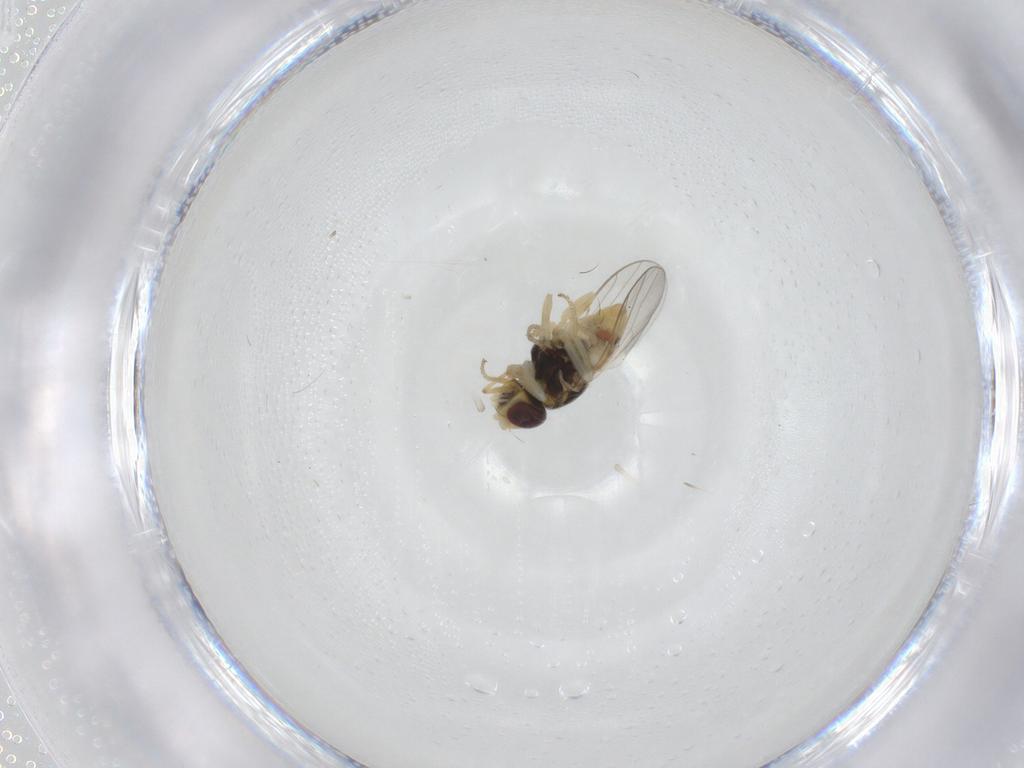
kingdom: Animalia
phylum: Arthropoda
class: Insecta
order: Diptera
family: Chloropidae
